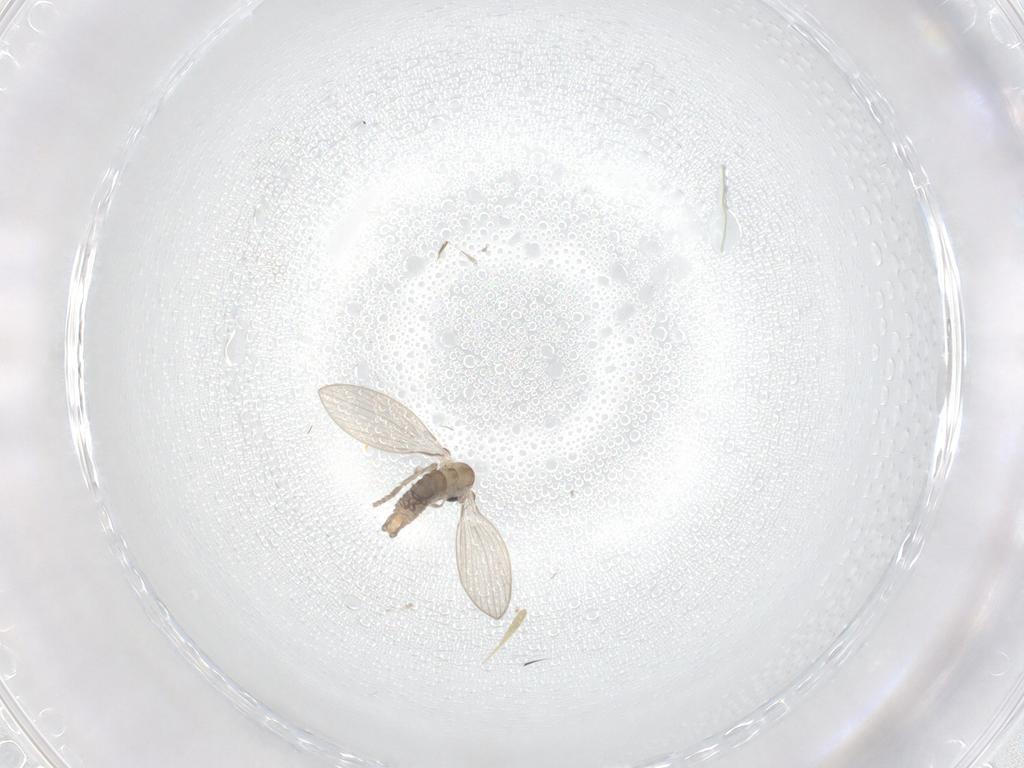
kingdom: Animalia
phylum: Arthropoda
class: Insecta
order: Diptera
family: Psychodidae
